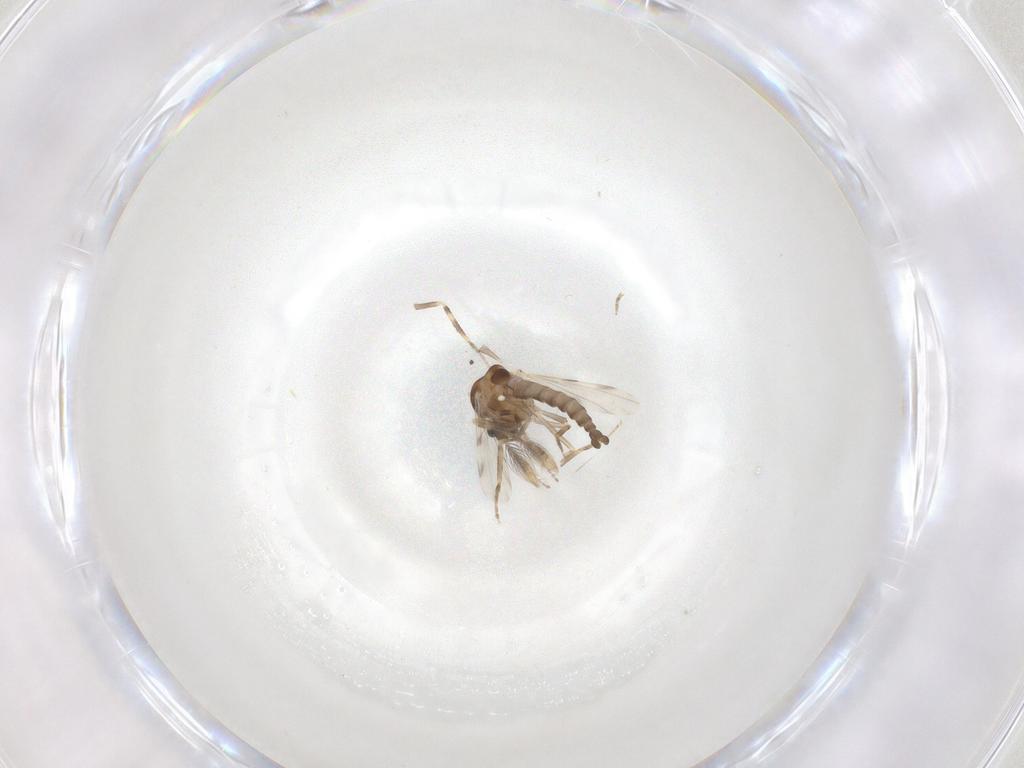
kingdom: Animalia
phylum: Arthropoda
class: Insecta
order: Diptera
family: Ceratopogonidae
